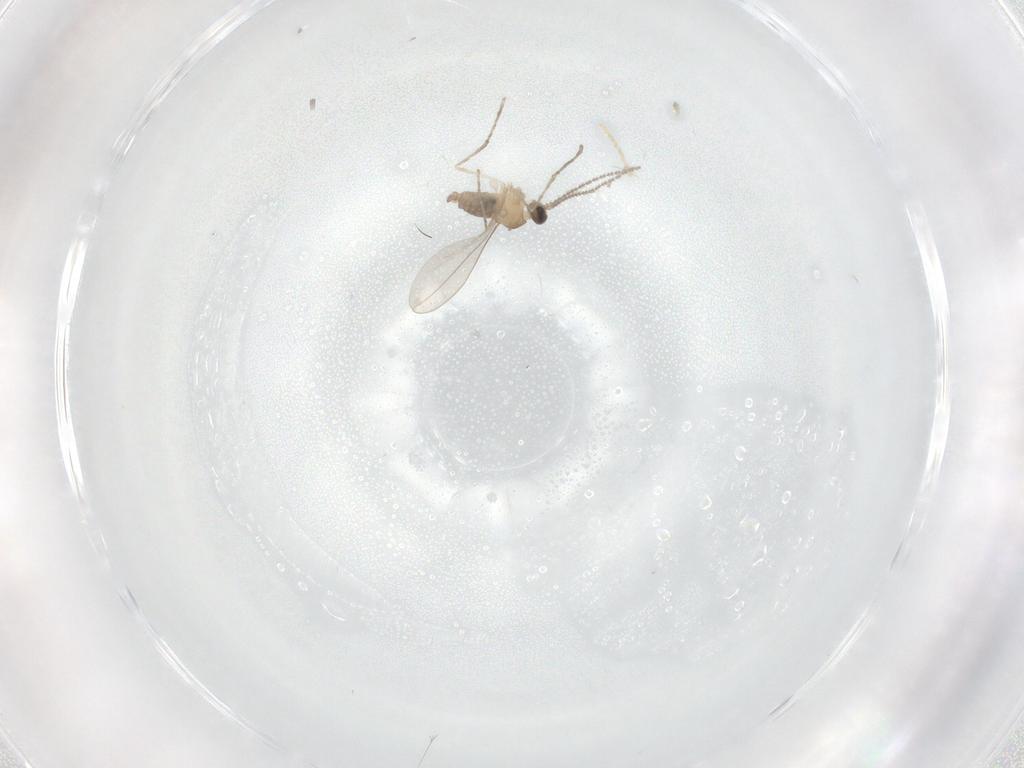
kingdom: Animalia
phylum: Arthropoda
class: Insecta
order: Diptera
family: Cecidomyiidae
